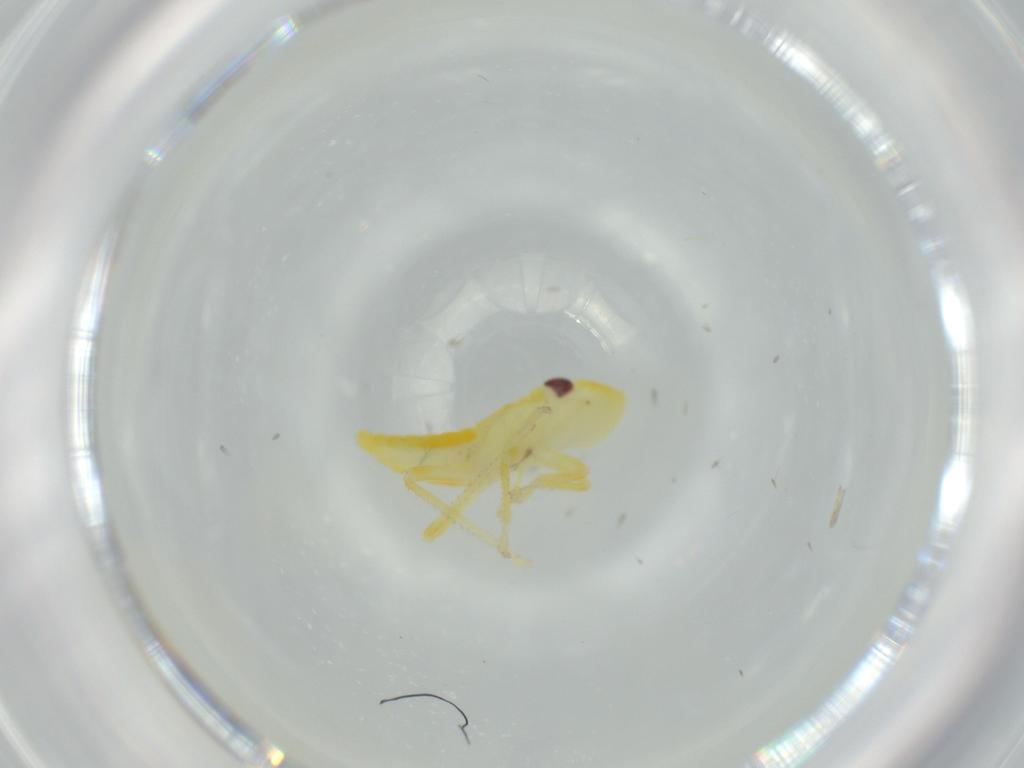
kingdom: Animalia
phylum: Arthropoda
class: Insecta
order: Hemiptera
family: Cicadellidae
